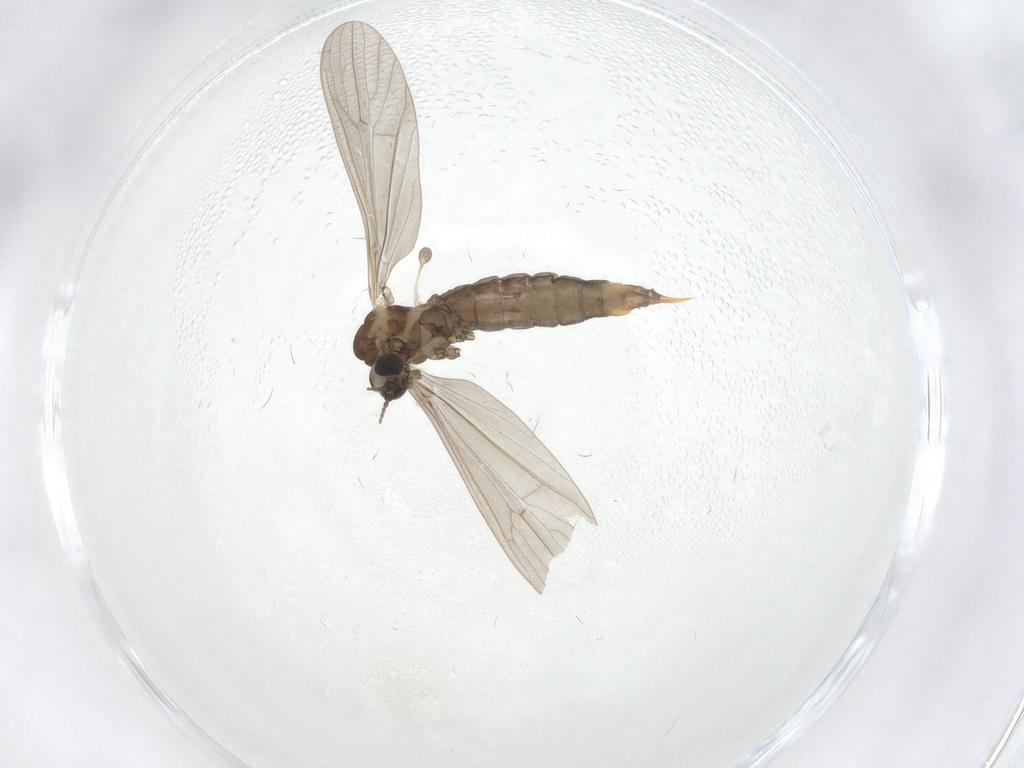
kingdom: Animalia
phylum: Arthropoda
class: Insecta
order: Diptera
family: Limoniidae
